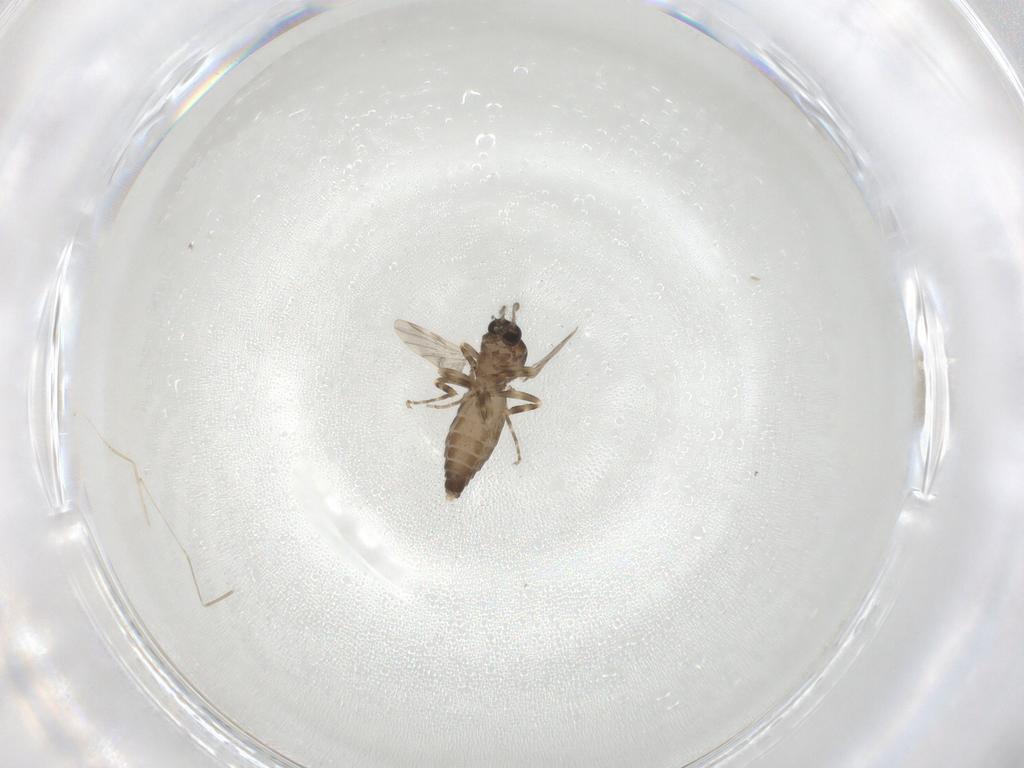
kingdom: Animalia
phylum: Arthropoda
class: Insecta
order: Diptera
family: Ceratopogonidae
